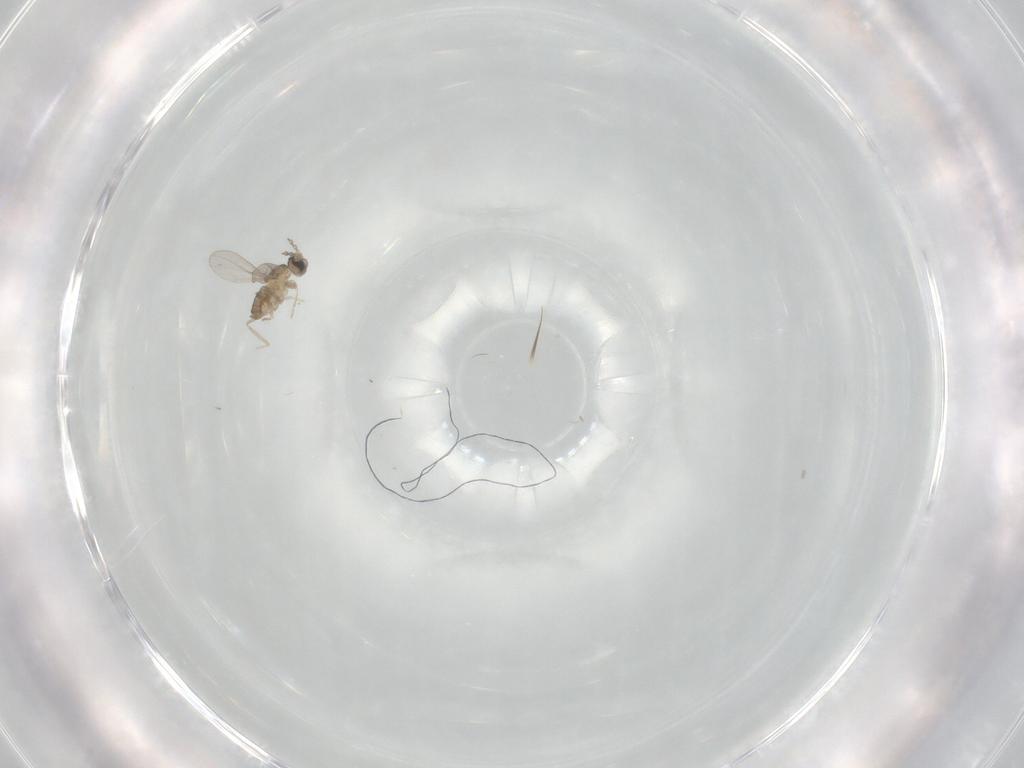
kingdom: Animalia
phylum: Arthropoda
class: Insecta
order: Diptera
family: Cecidomyiidae
